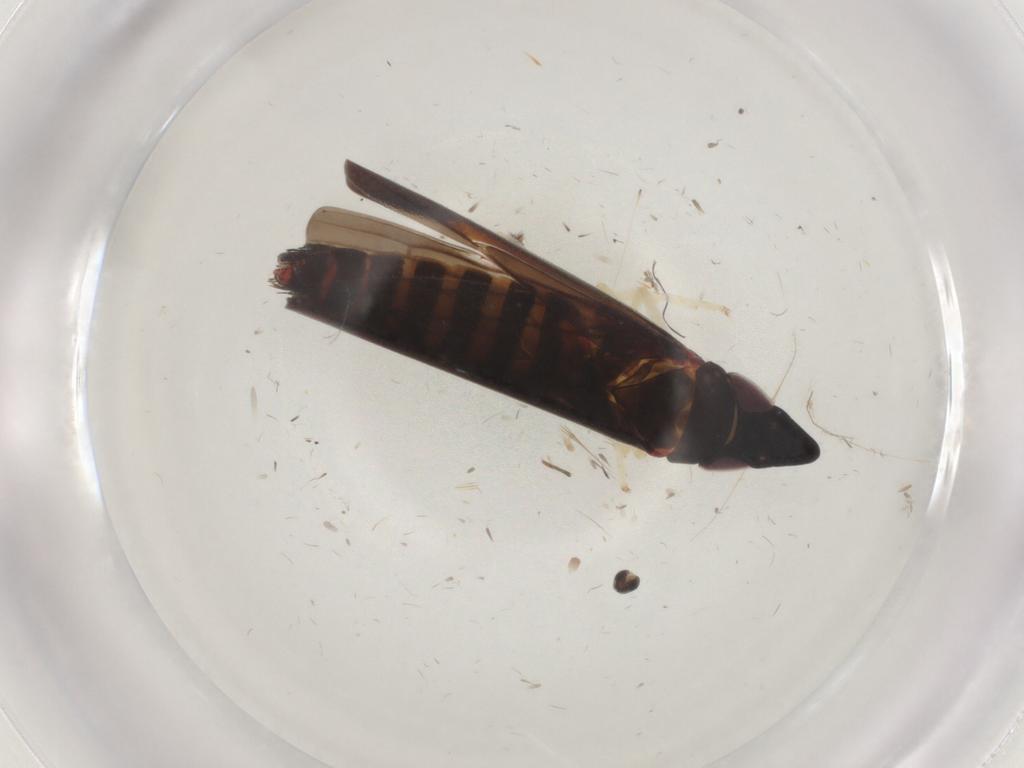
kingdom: Animalia
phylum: Arthropoda
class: Insecta
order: Hemiptera
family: Cicadellidae
